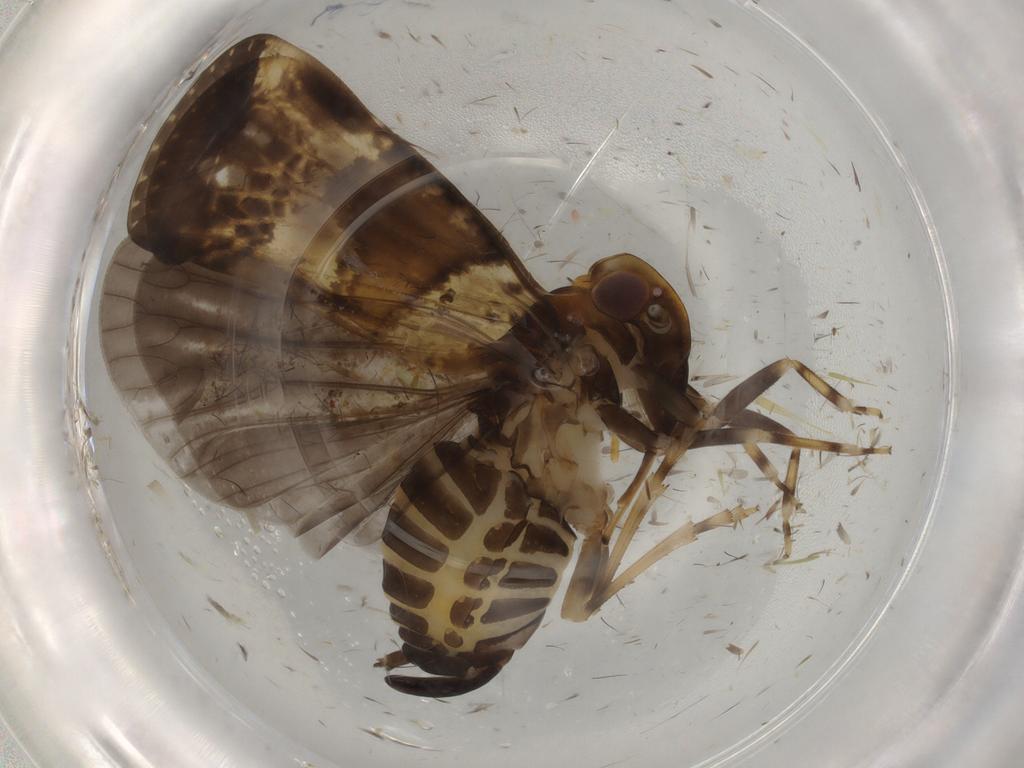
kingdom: Animalia
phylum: Arthropoda
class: Insecta
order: Hemiptera
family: Cixiidae
